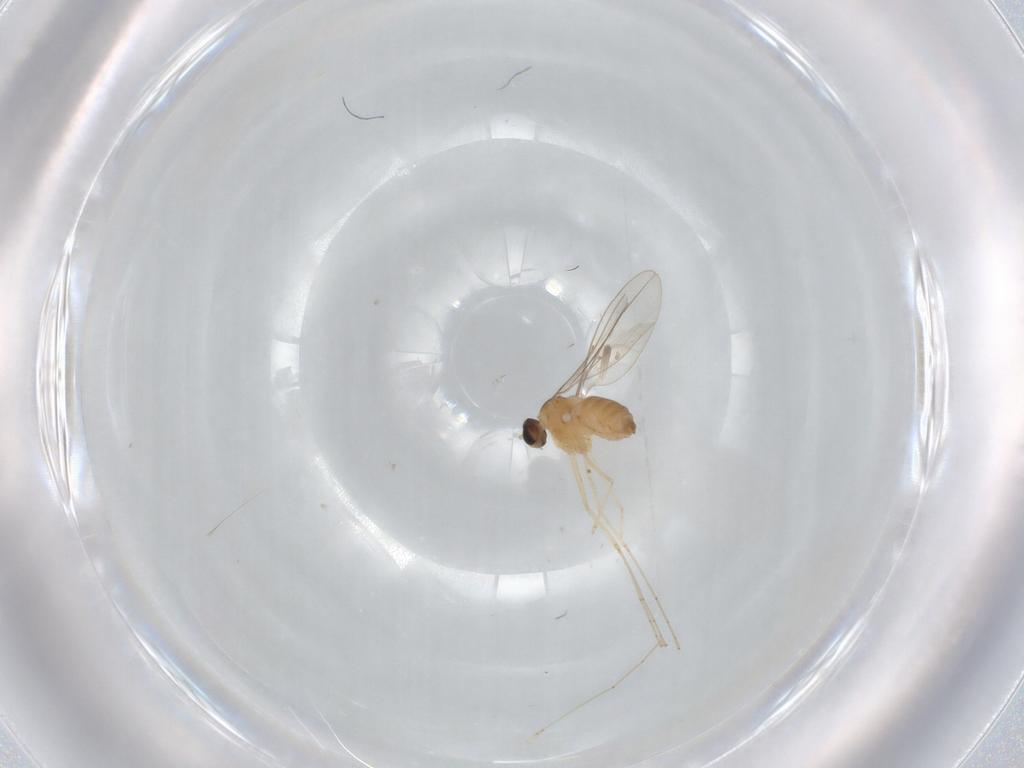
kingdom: Animalia
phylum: Arthropoda
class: Insecta
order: Diptera
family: Cecidomyiidae
